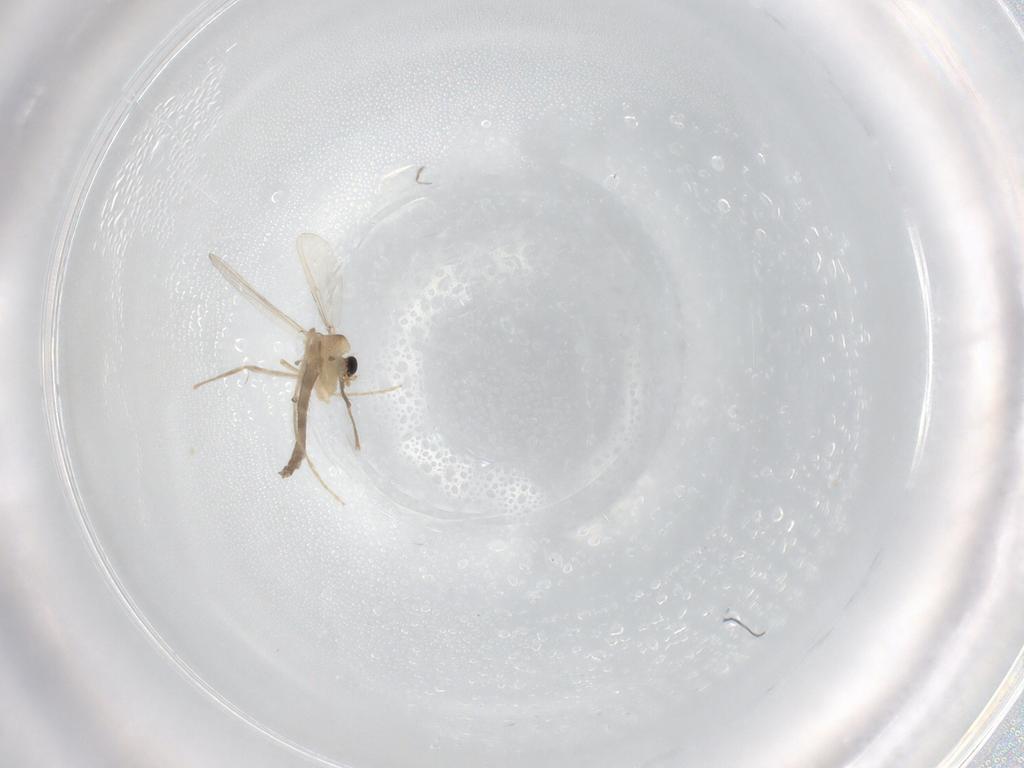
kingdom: Animalia
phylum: Arthropoda
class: Insecta
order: Diptera
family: Chironomidae
